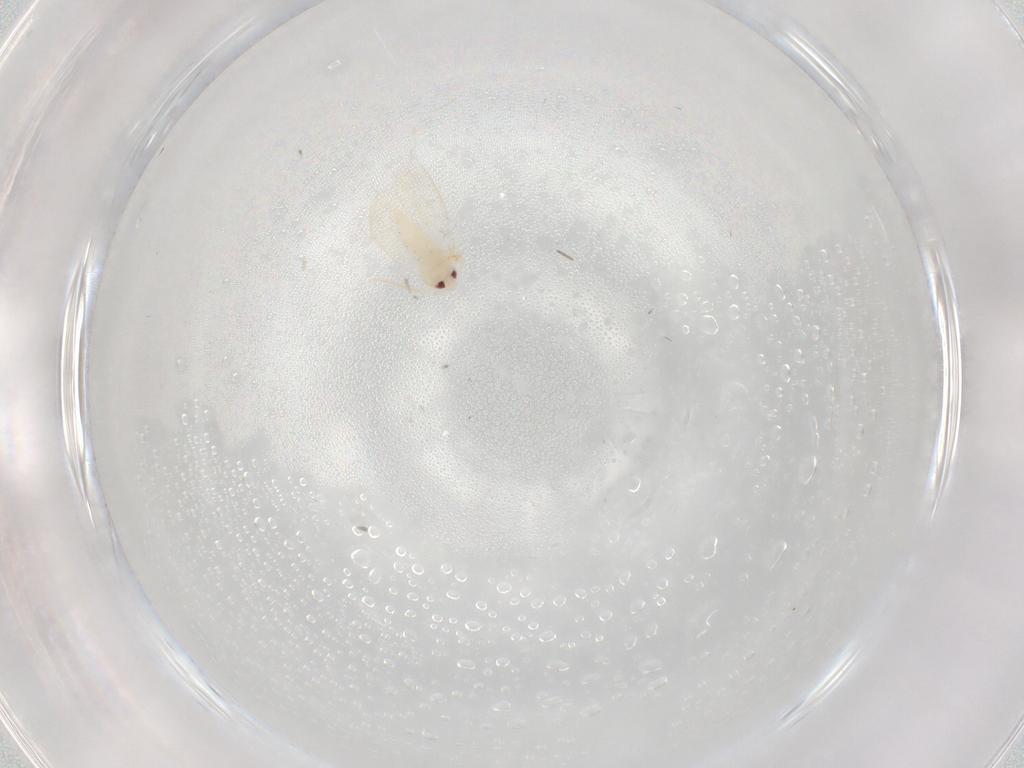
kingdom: Animalia
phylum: Arthropoda
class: Insecta
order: Hemiptera
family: Aleyrodidae
